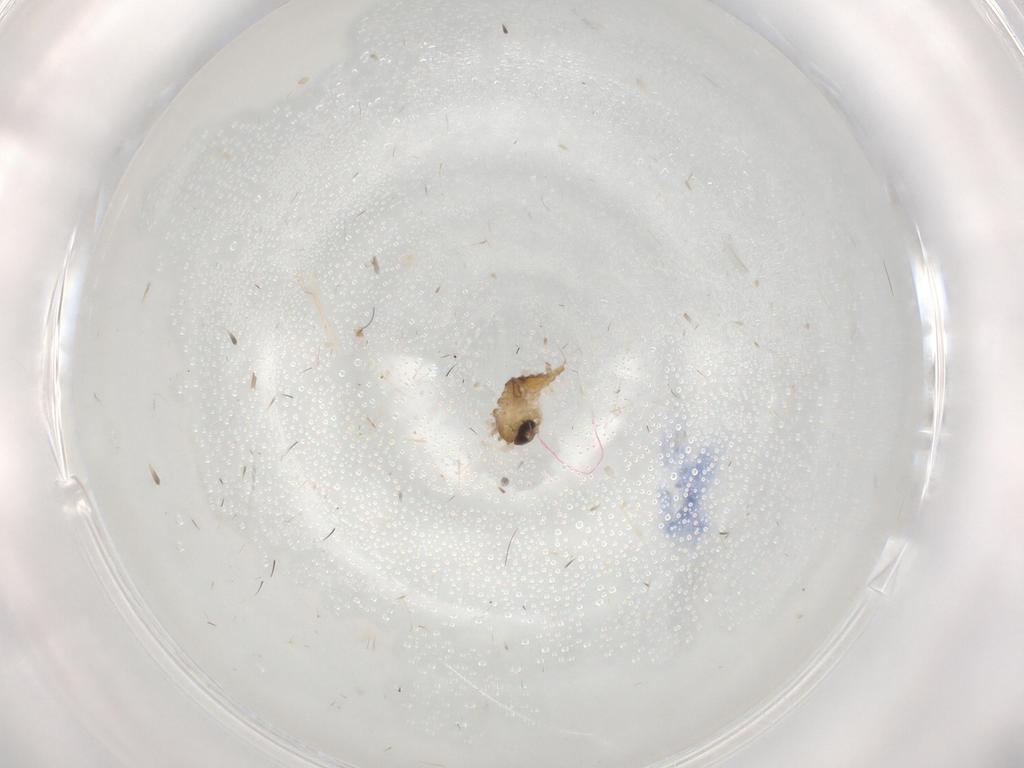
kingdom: Animalia
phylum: Arthropoda
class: Insecta
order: Diptera
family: Psychodidae
